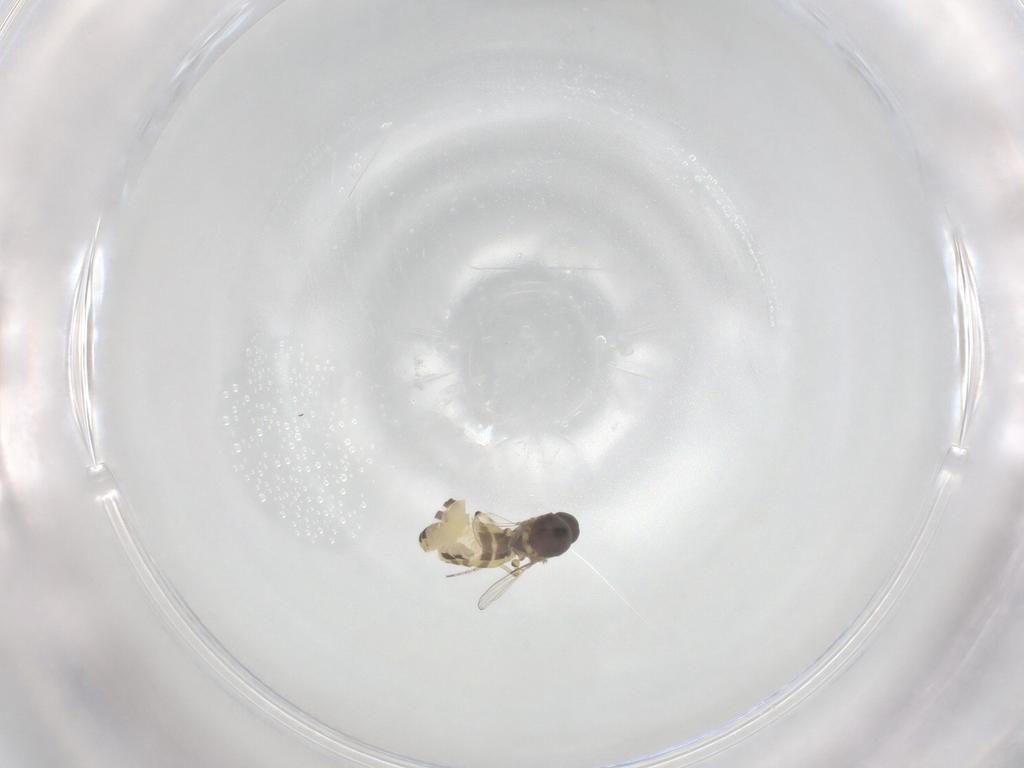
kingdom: Animalia
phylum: Arthropoda
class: Insecta
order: Diptera
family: Ceratopogonidae
